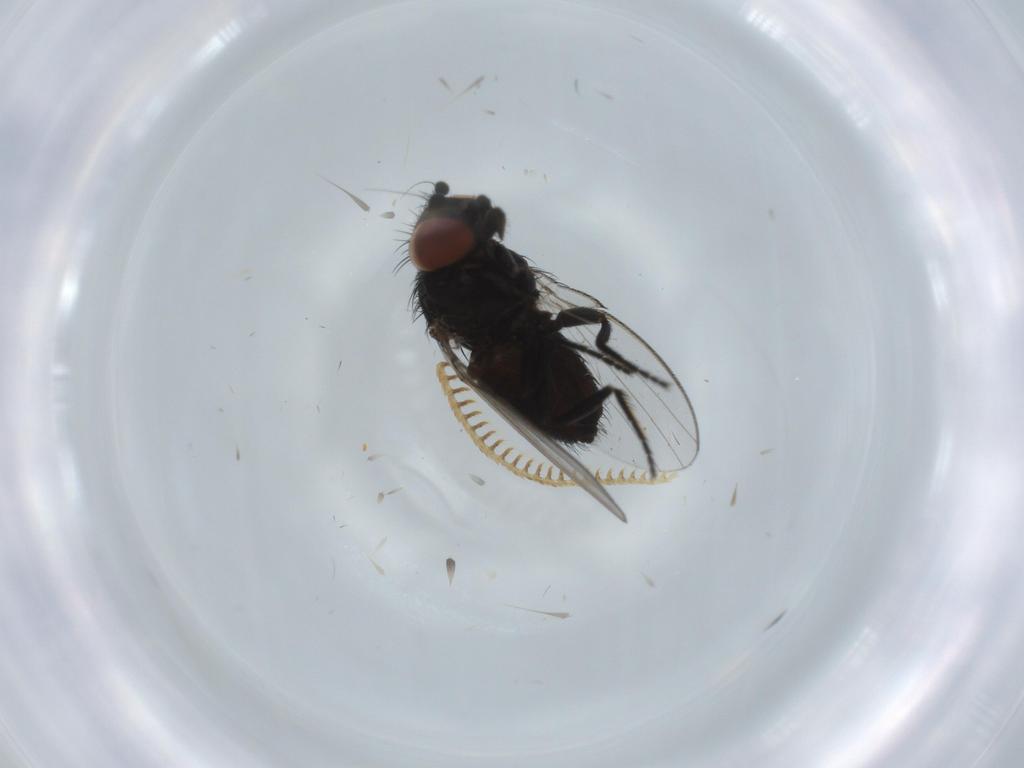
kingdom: Animalia
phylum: Arthropoda
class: Insecta
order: Diptera
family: Milichiidae
